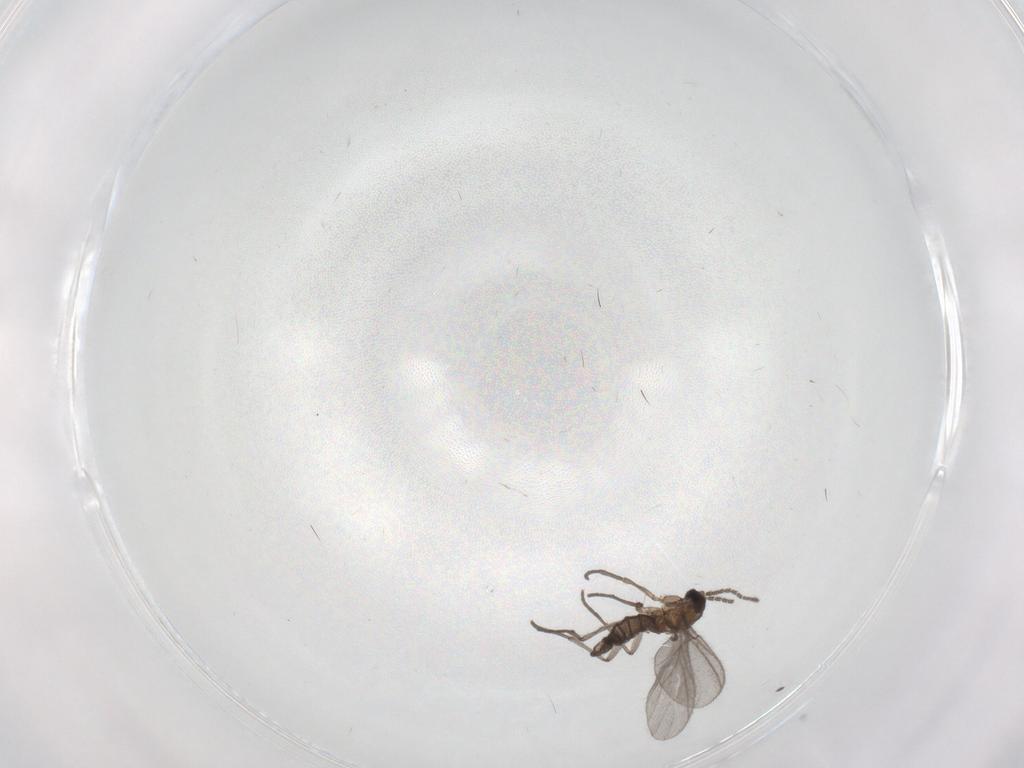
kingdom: Animalia
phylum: Arthropoda
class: Insecta
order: Diptera
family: Sciaridae
